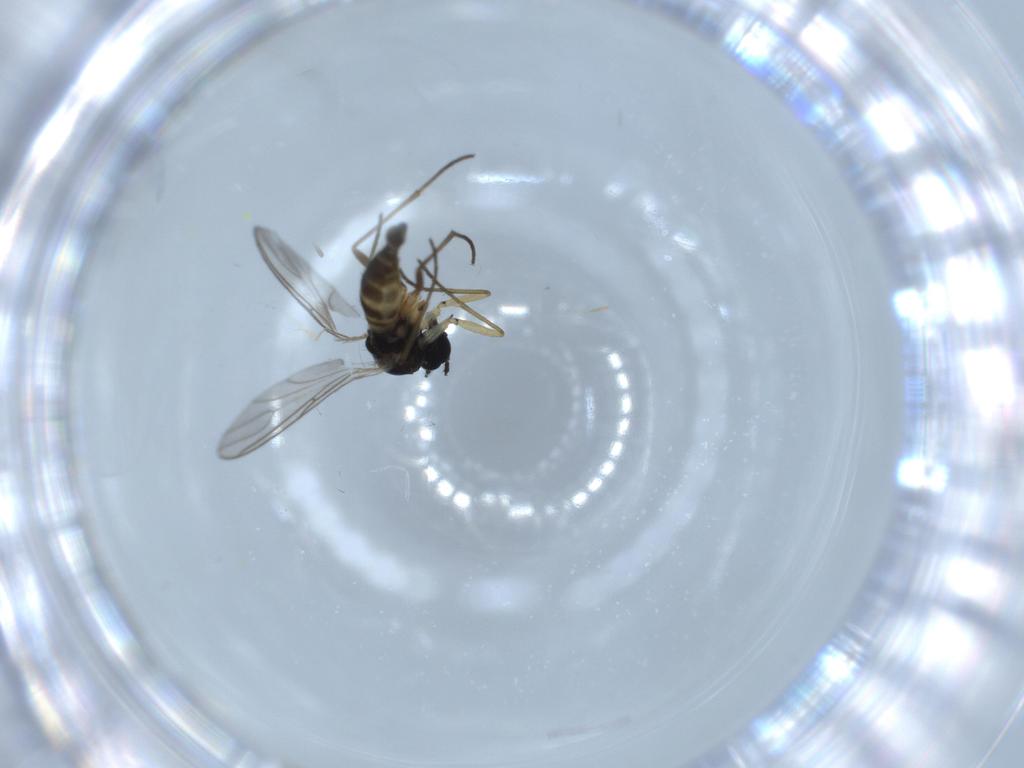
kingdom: Animalia
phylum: Arthropoda
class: Insecta
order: Diptera
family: Sciaridae
